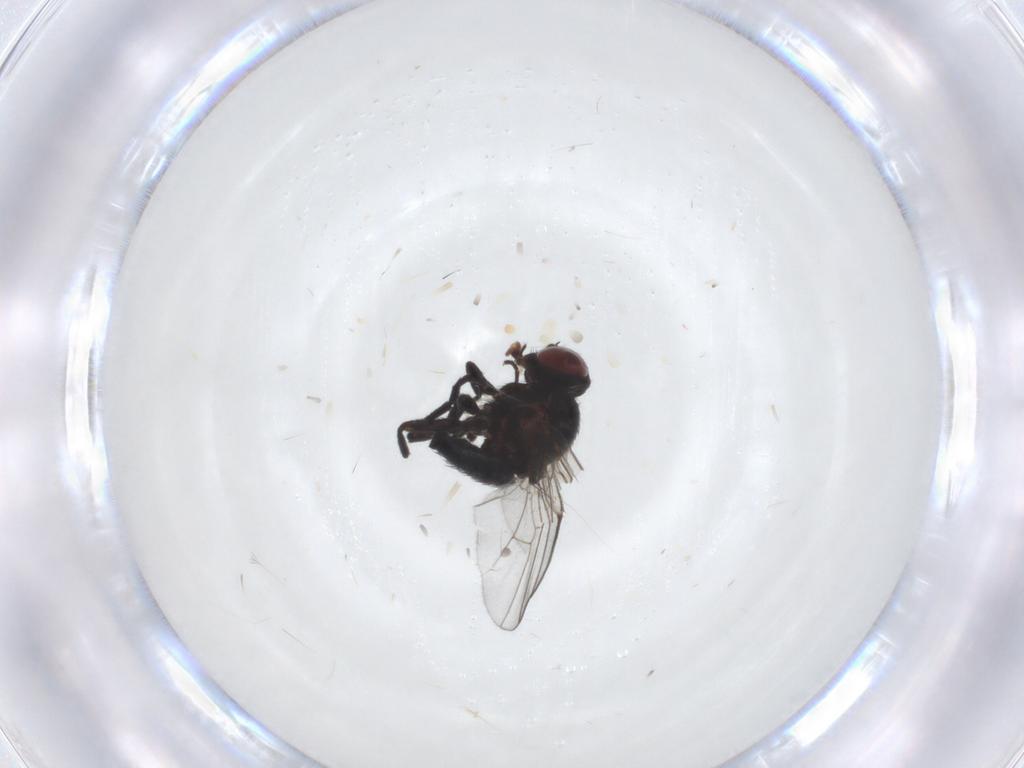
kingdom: Animalia
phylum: Arthropoda
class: Insecta
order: Diptera
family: Agromyzidae
